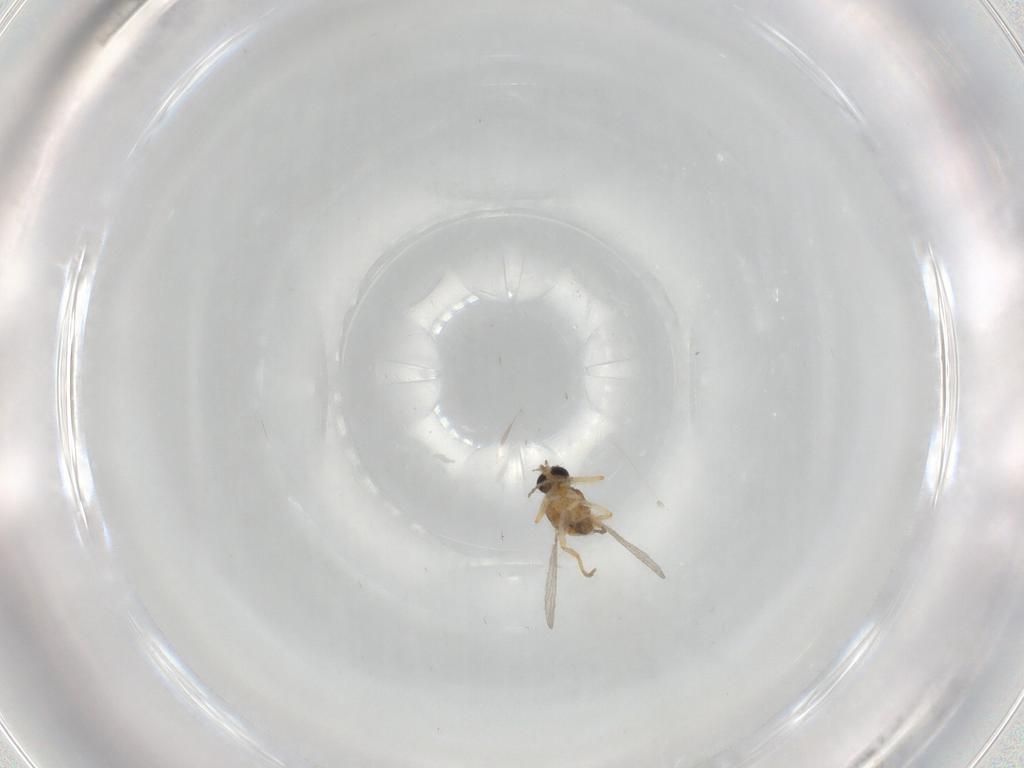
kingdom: Animalia
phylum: Arthropoda
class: Insecta
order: Diptera
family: Ceratopogonidae
